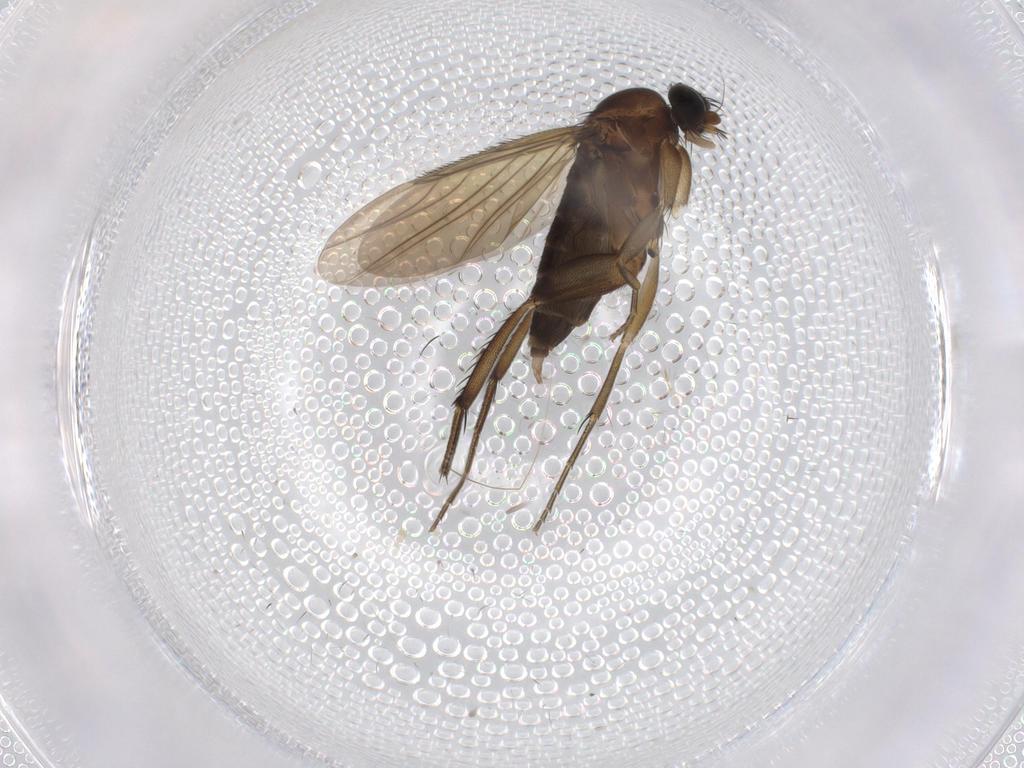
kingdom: Animalia
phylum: Arthropoda
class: Insecta
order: Diptera
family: Phoridae
